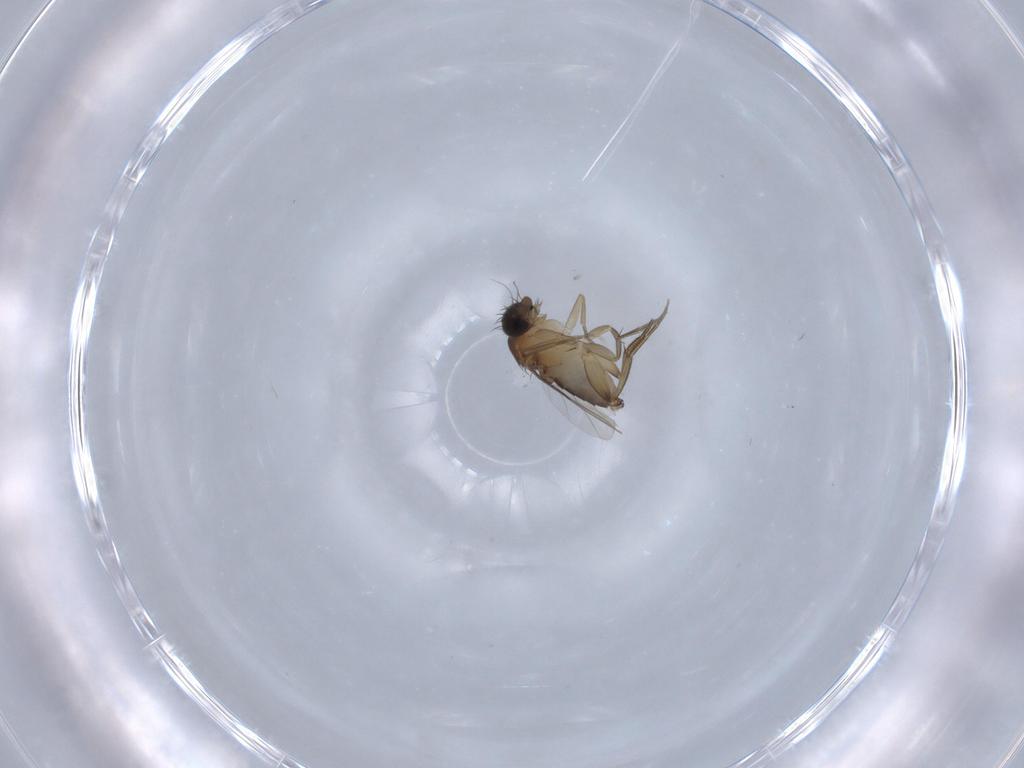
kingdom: Animalia
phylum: Arthropoda
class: Insecta
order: Diptera
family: Phoridae
